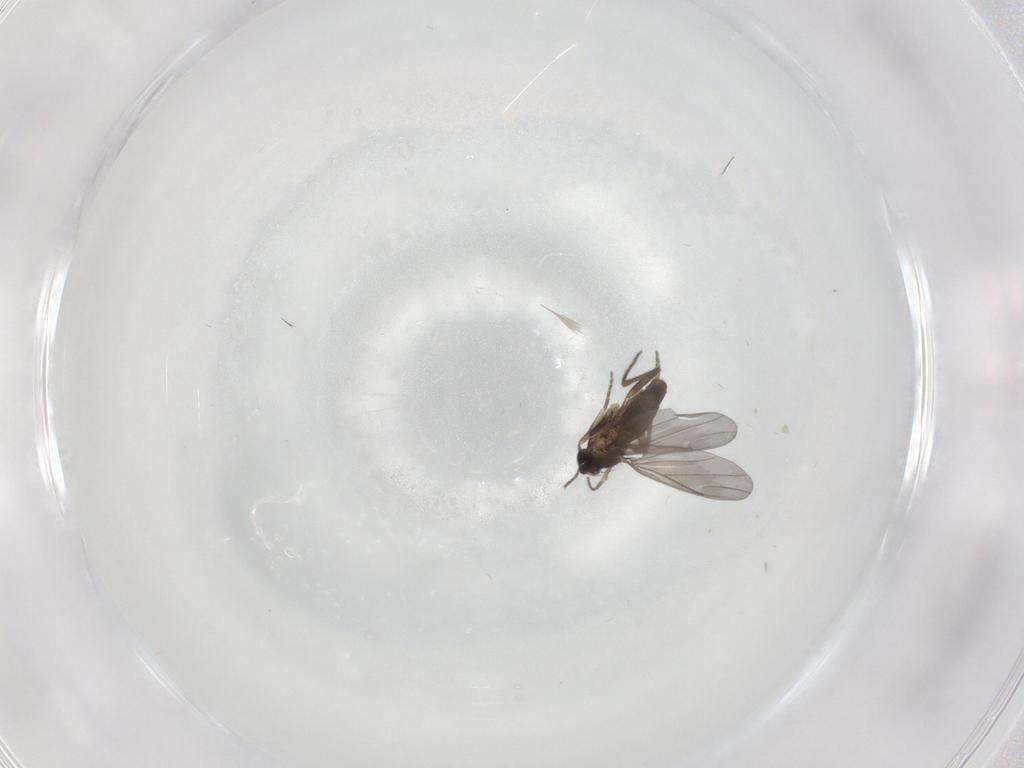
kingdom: Animalia
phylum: Arthropoda
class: Insecta
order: Diptera
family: Phoridae
